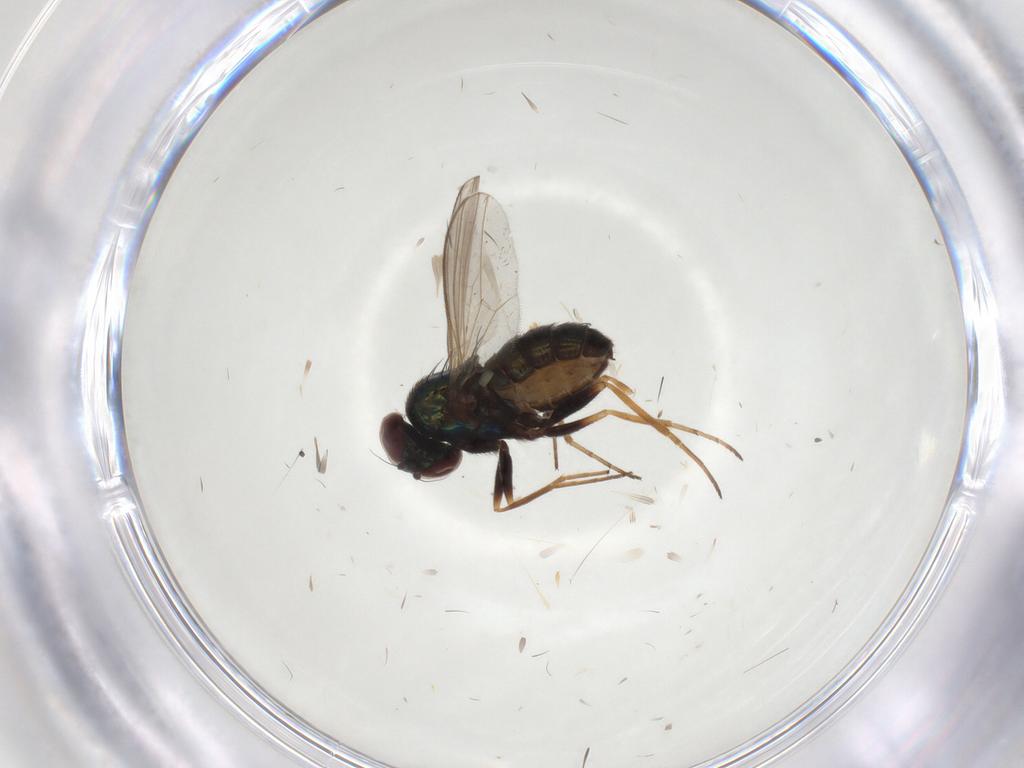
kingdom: Animalia
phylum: Arthropoda
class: Insecta
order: Diptera
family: Dolichopodidae
